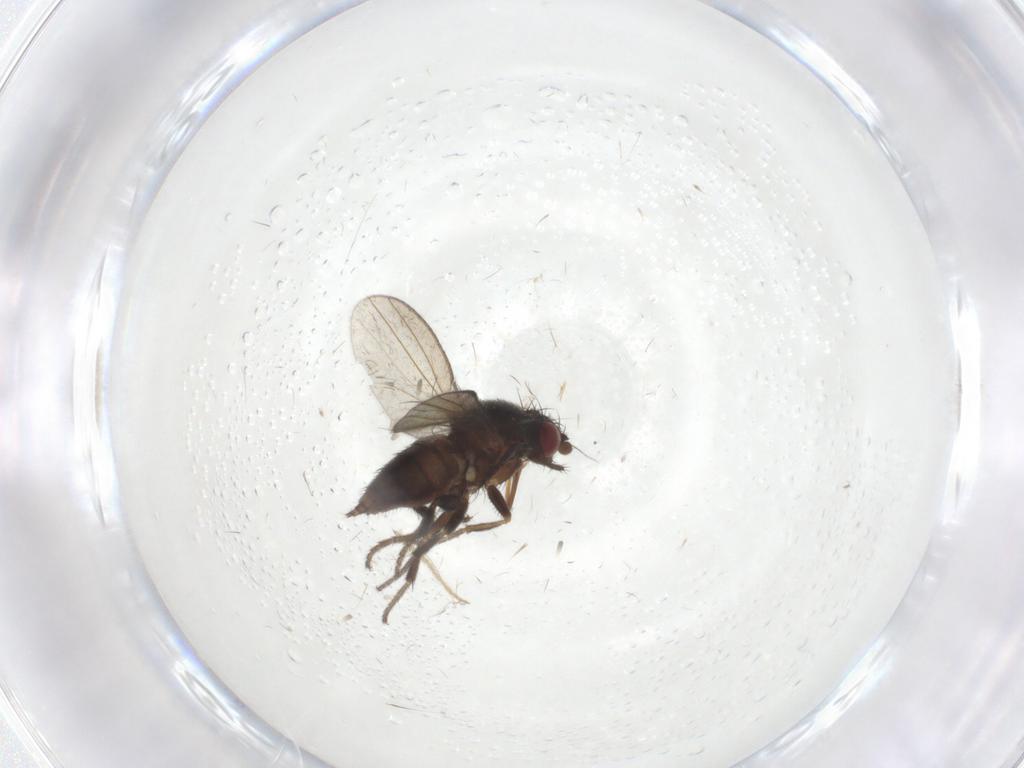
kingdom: Animalia
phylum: Arthropoda
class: Insecta
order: Diptera
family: Milichiidae
